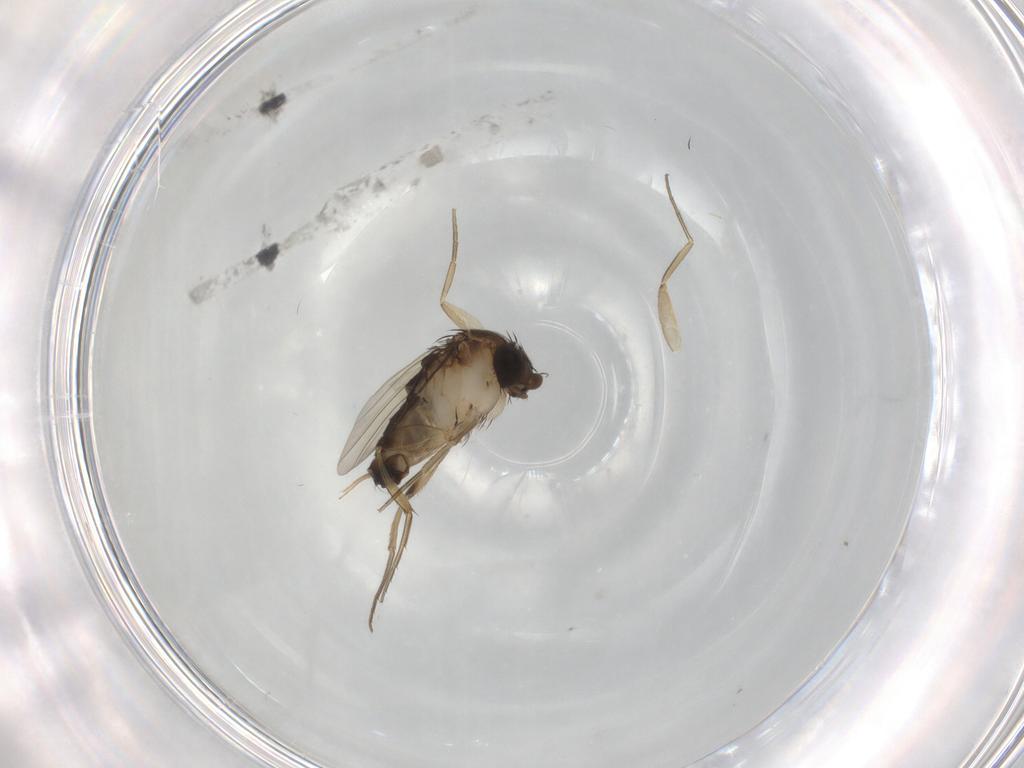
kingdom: Animalia
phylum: Arthropoda
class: Insecta
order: Diptera
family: Phoridae
